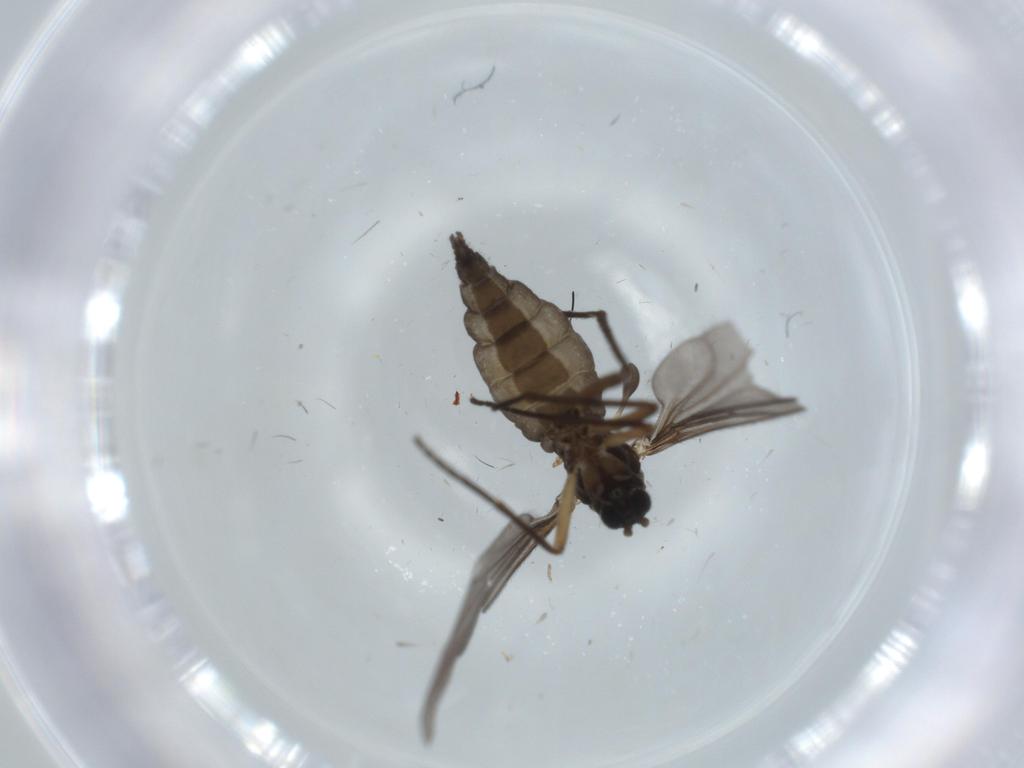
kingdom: Animalia
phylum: Arthropoda
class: Insecta
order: Diptera
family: Sciaridae
